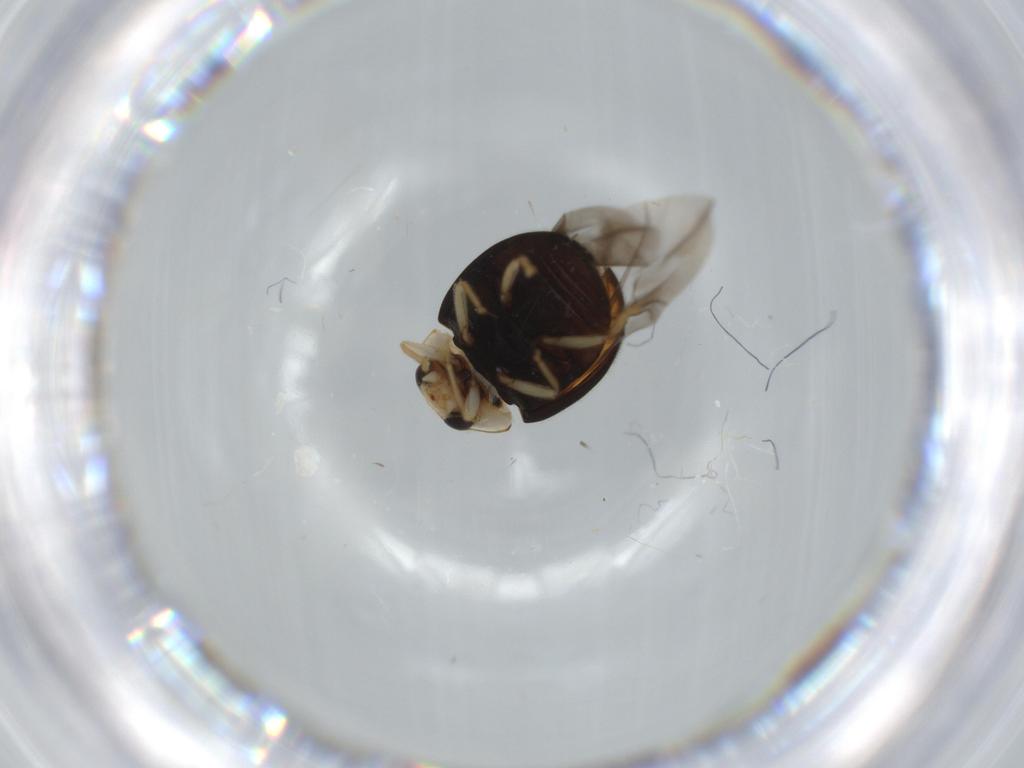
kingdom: Animalia
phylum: Arthropoda
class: Insecta
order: Coleoptera
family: Coccinellidae
